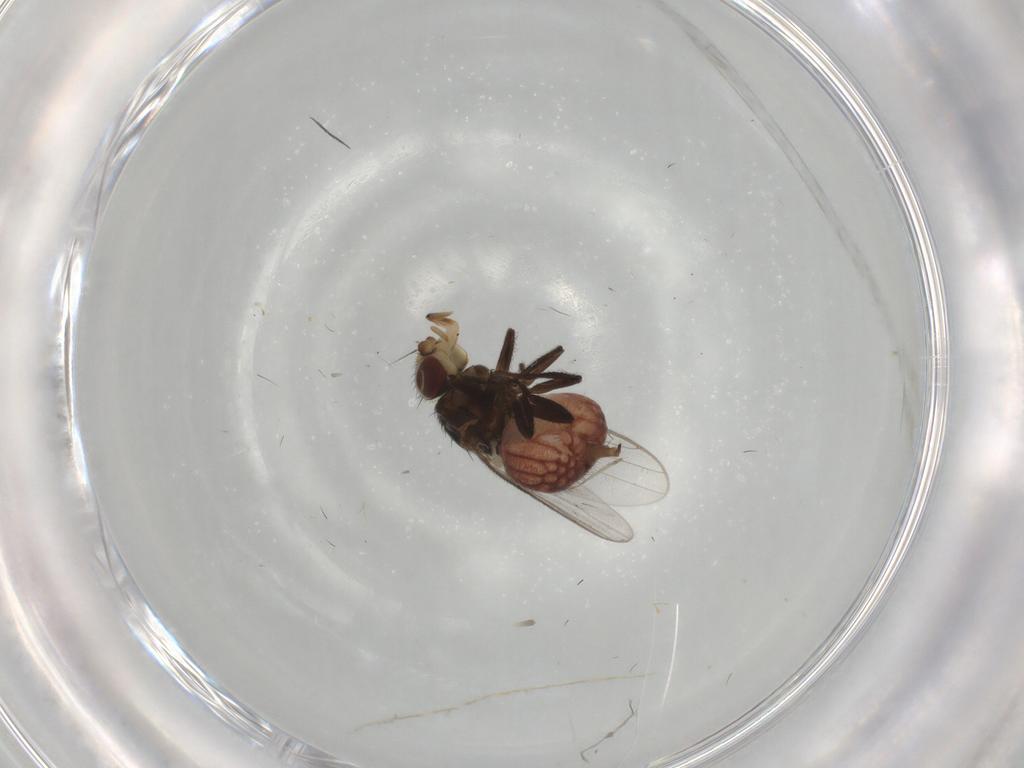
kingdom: Animalia
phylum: Arthropoda
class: Insecta
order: Diptera
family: Chloropidae
